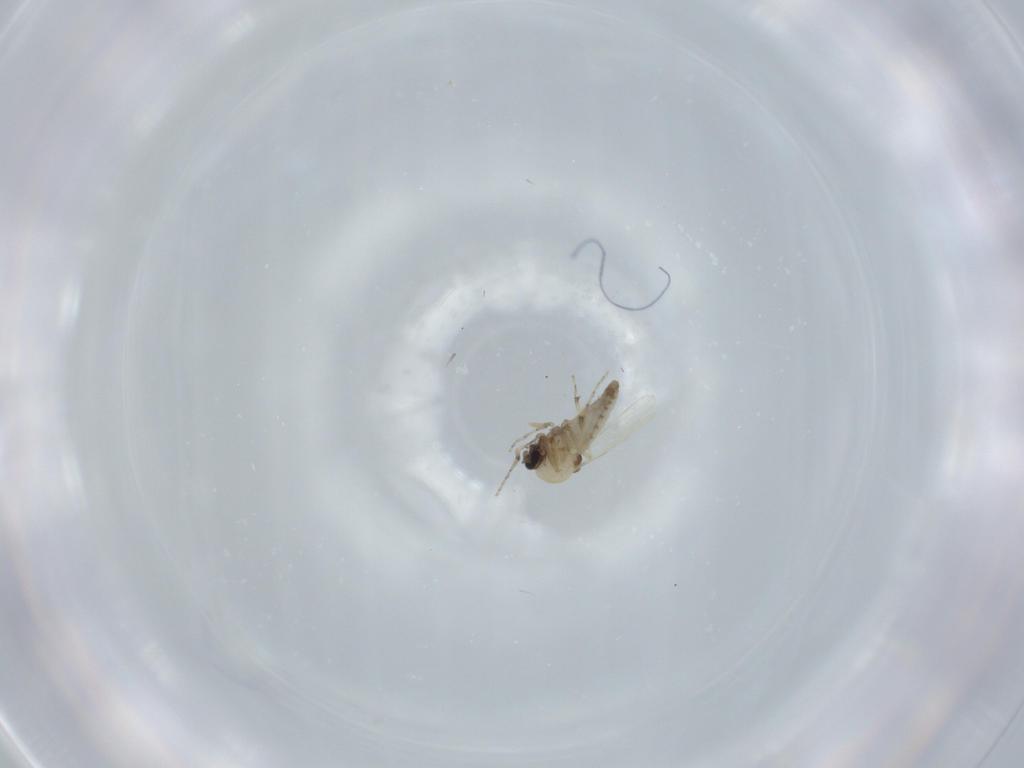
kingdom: Animalia
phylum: Arthropoda
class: Insecta
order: Diptera
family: Ceratopogonidae
